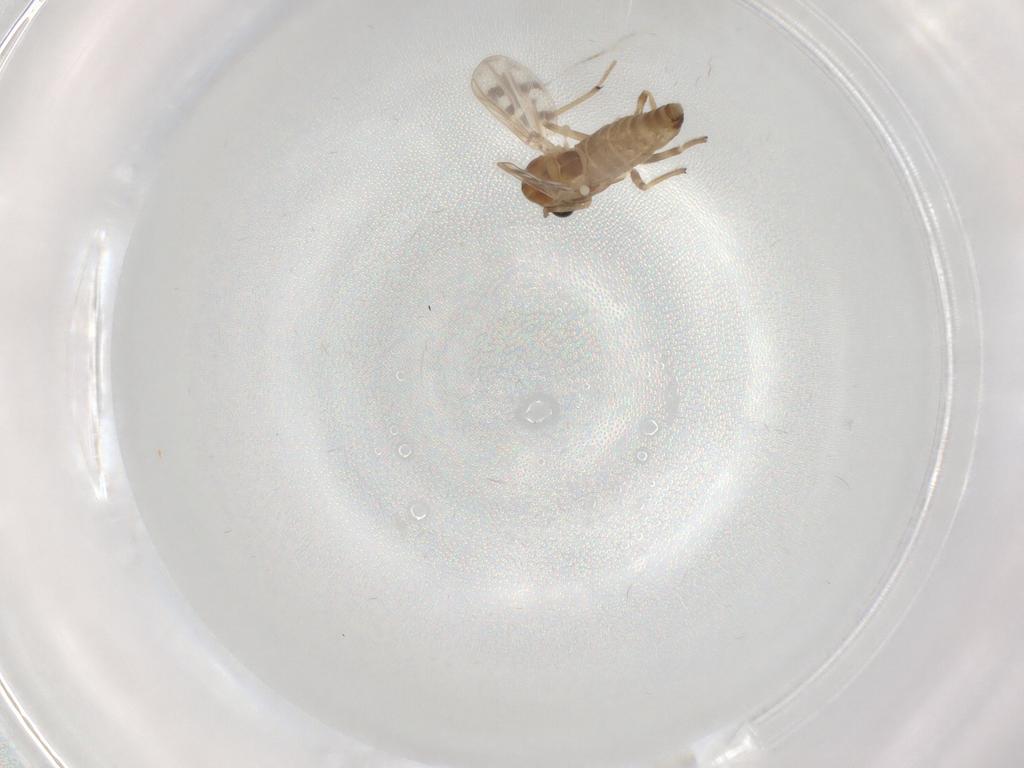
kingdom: Animalia
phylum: Arthropoda
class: Insecta
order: Diptera
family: Chironomidae
